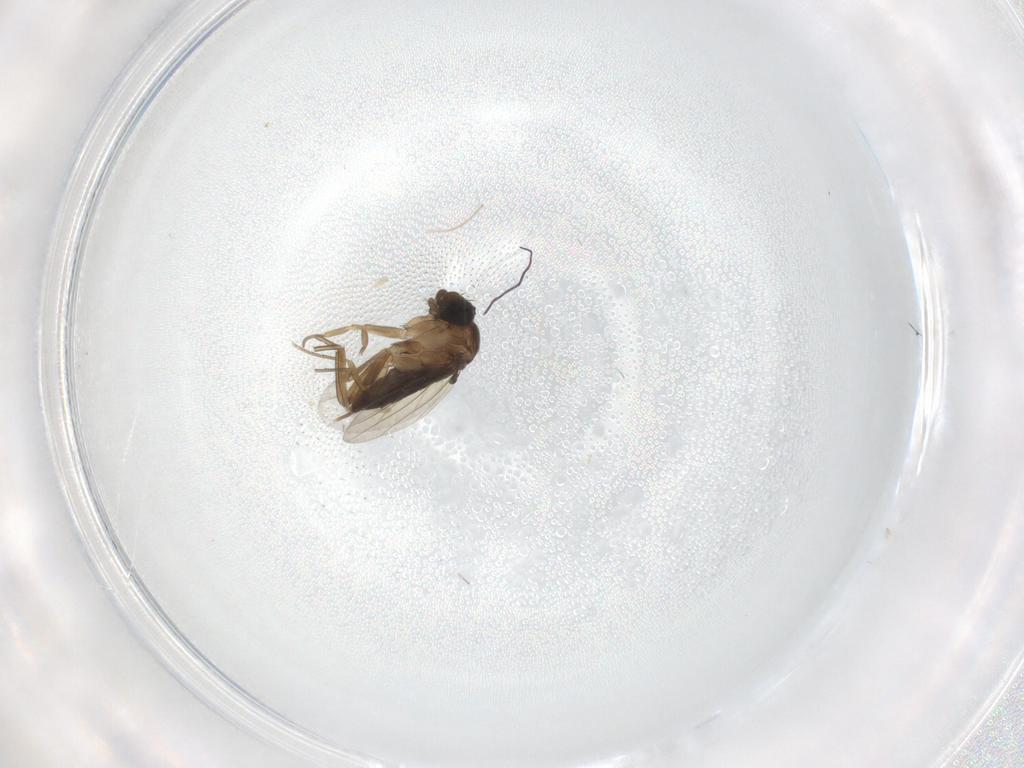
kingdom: Animalia
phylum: Arthropoda
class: Insecta
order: Diptera
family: Chironomidae
